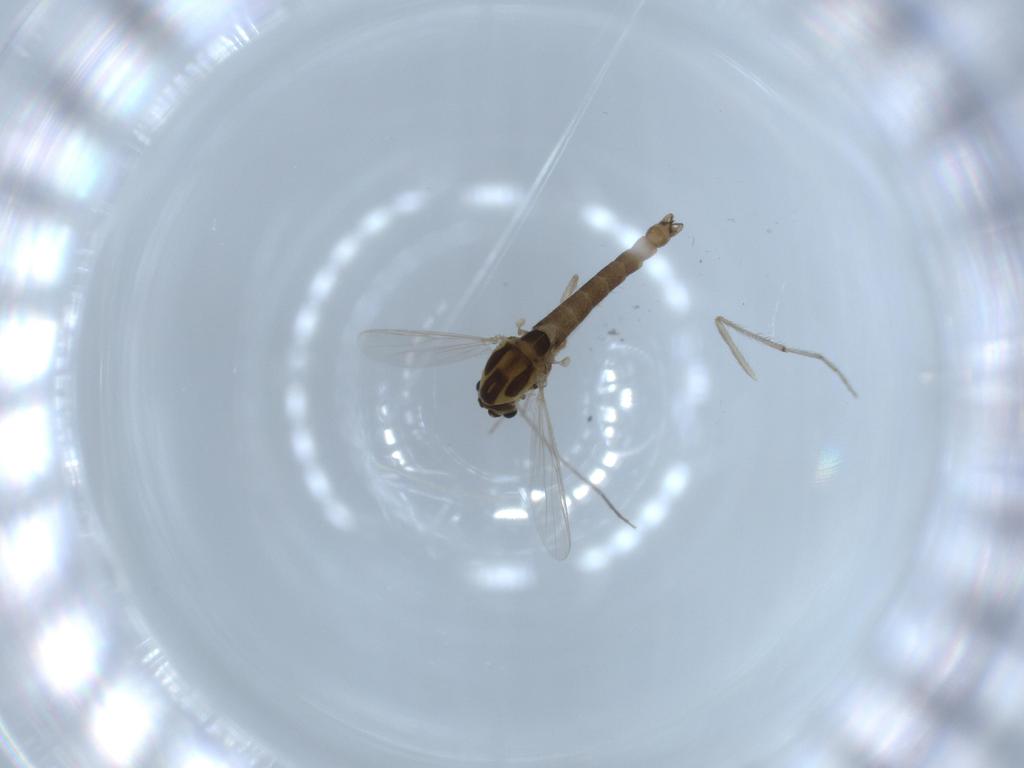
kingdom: Animalia
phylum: Arthropoda
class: Insecta
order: Diptera
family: Chironomidae
